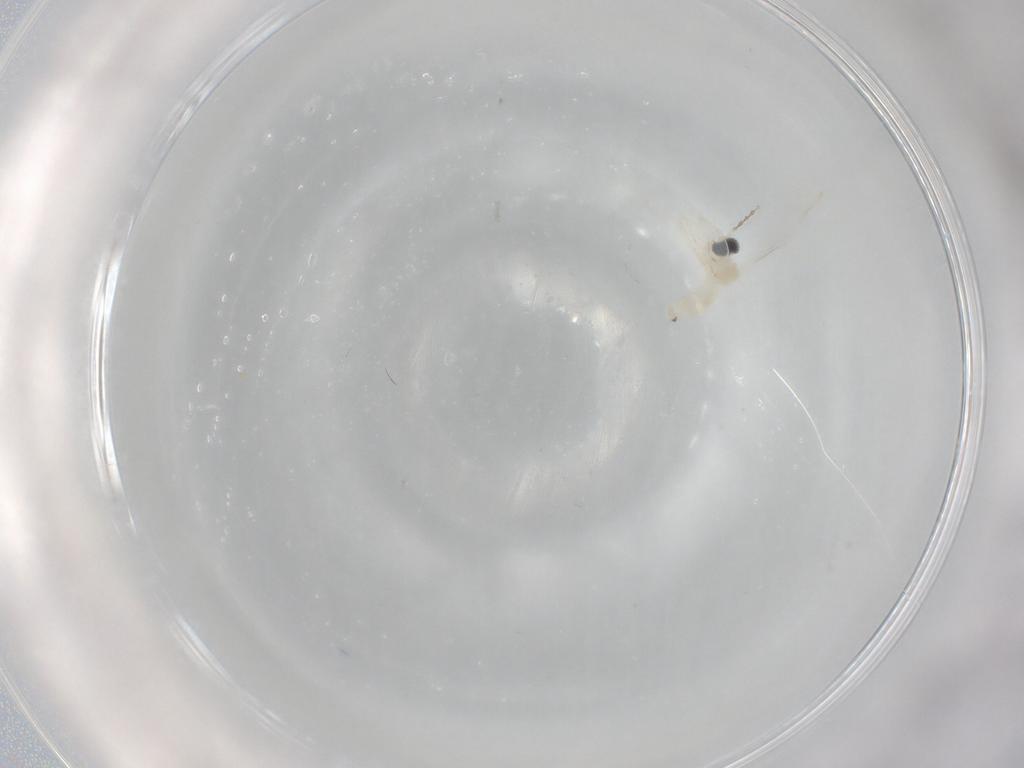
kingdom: Animalia
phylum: Arthropoda
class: Insecta
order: Diptera
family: Cecidomyiidae
